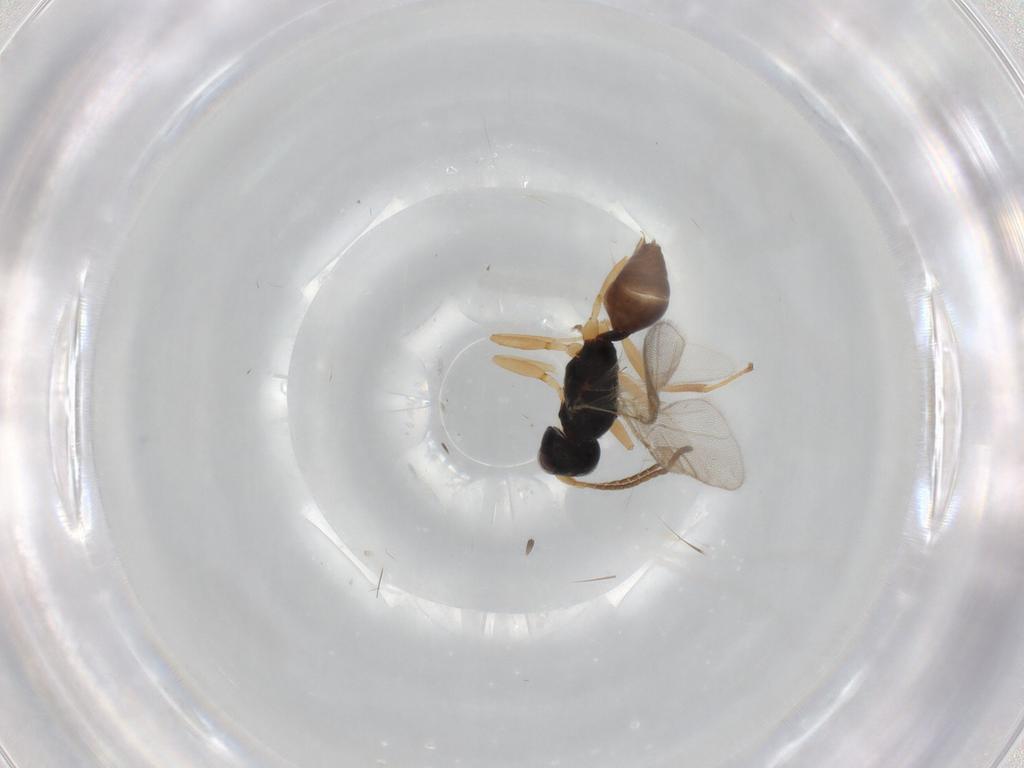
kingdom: Animalia
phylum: Arthropoda
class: Insecta
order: Hymenoptera
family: Braconidae
